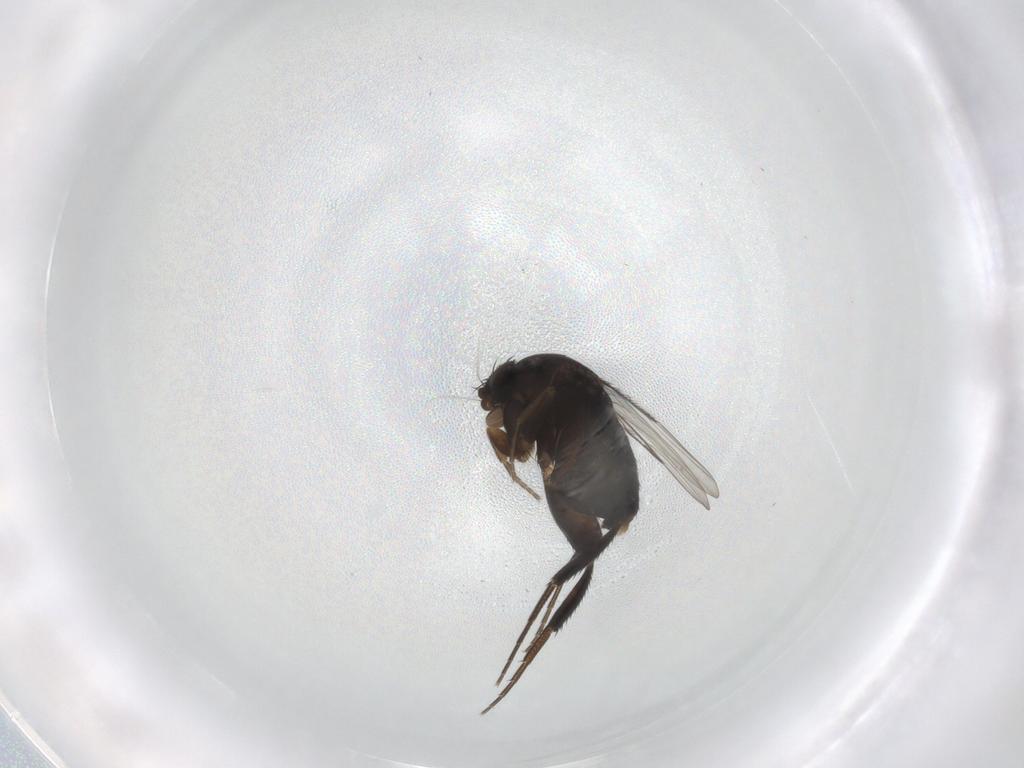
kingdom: Animalia
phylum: Arthropoda
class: Insecta
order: Diptera
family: Phoridae
